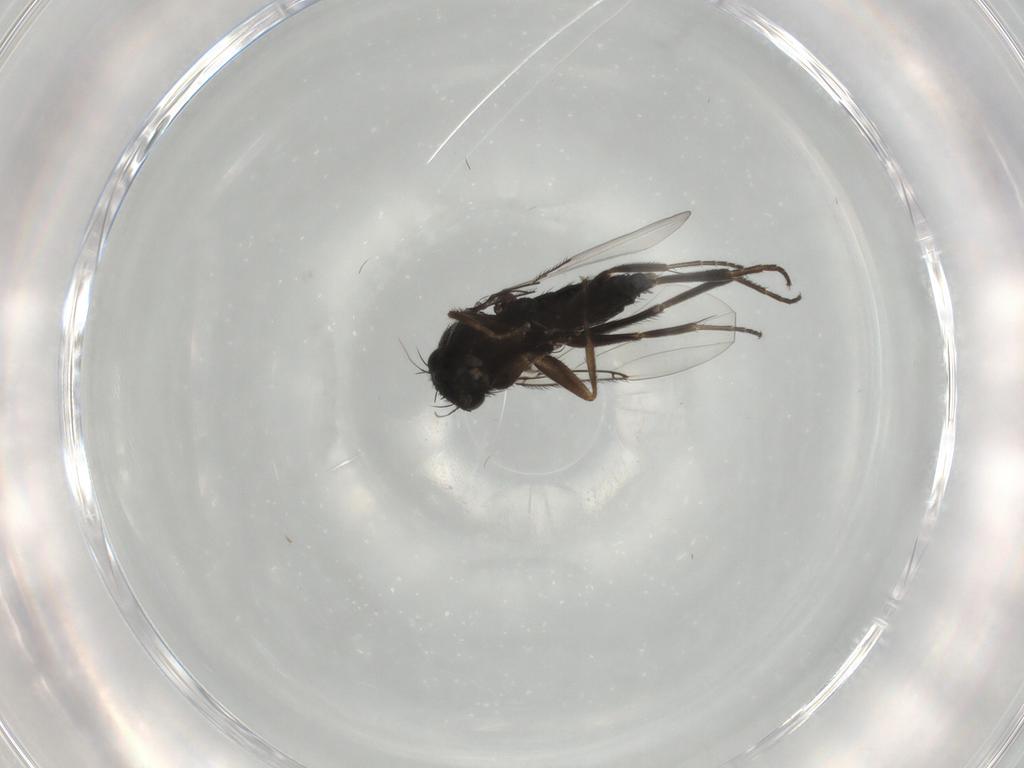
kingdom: Animalia
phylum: Arthropoda
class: Insecta
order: Diptera
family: Phoridae
